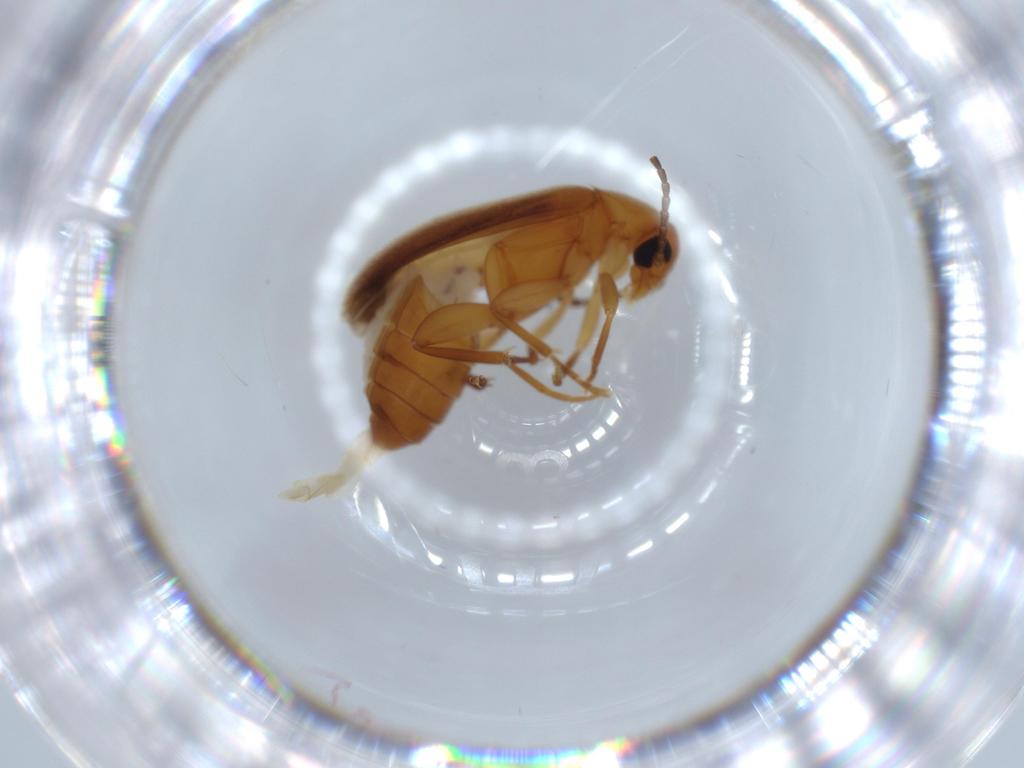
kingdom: Animalia
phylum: Arthropoda
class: Insecta
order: Coleoptera
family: Scraptiidae
